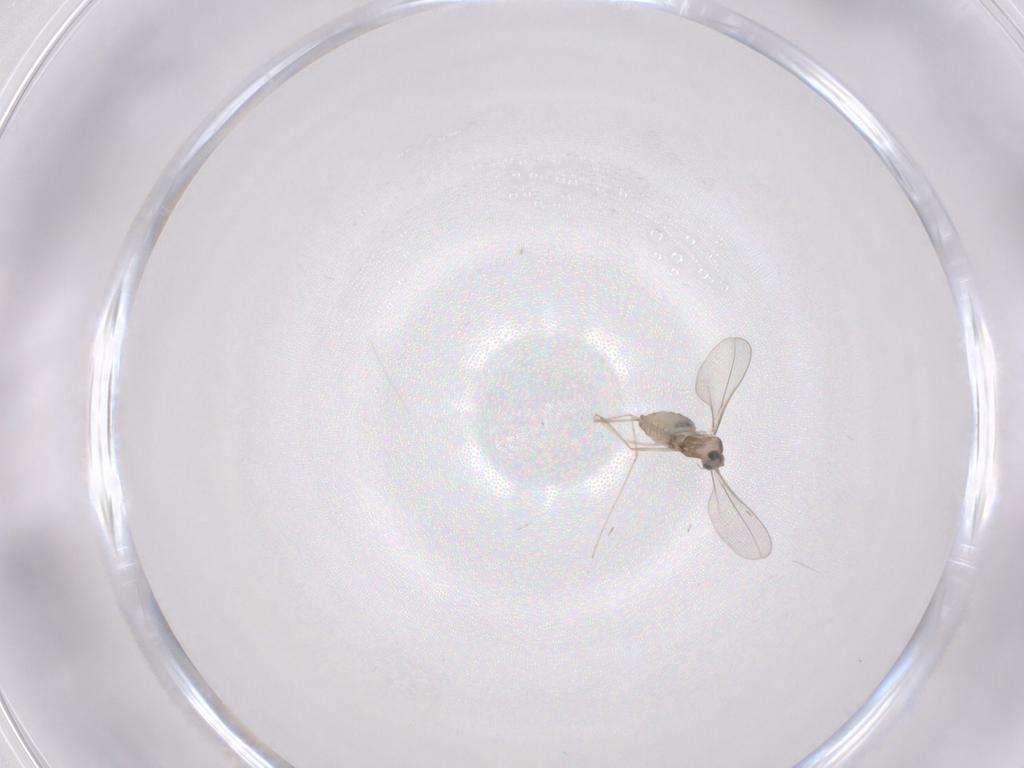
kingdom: Animalia
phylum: Arthropoda
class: Insecta
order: Diptera
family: Cecidomyiidae
